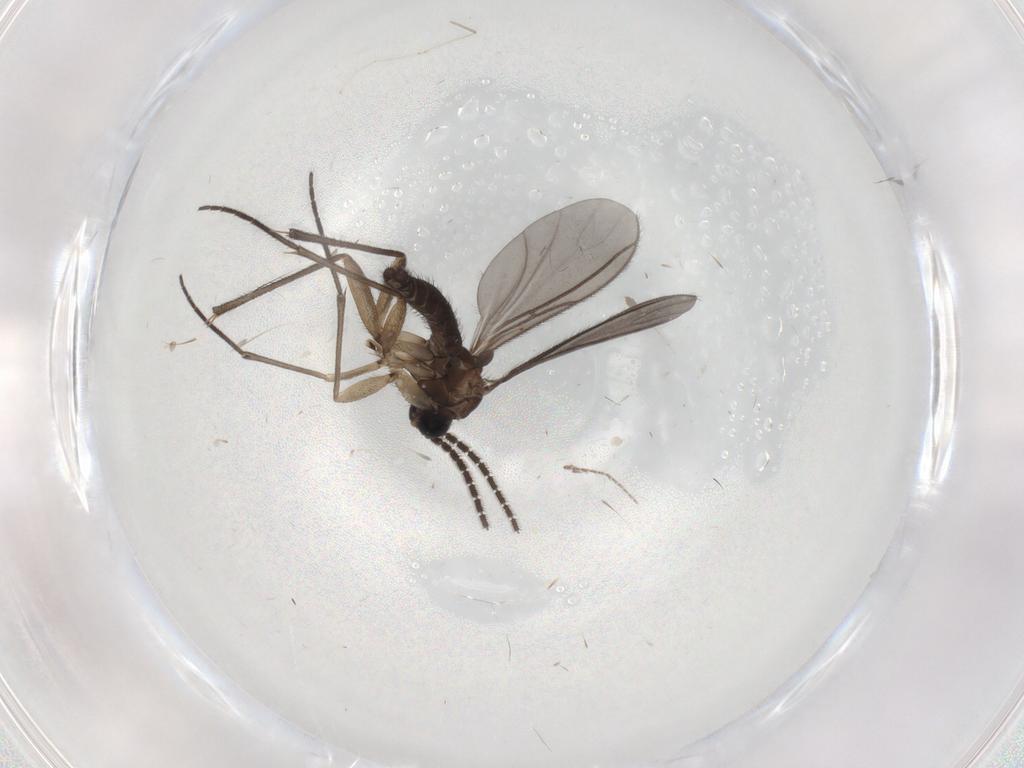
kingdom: Animalia
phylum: Arthropoda
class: Insecta
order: Diptera
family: Sciaridae
